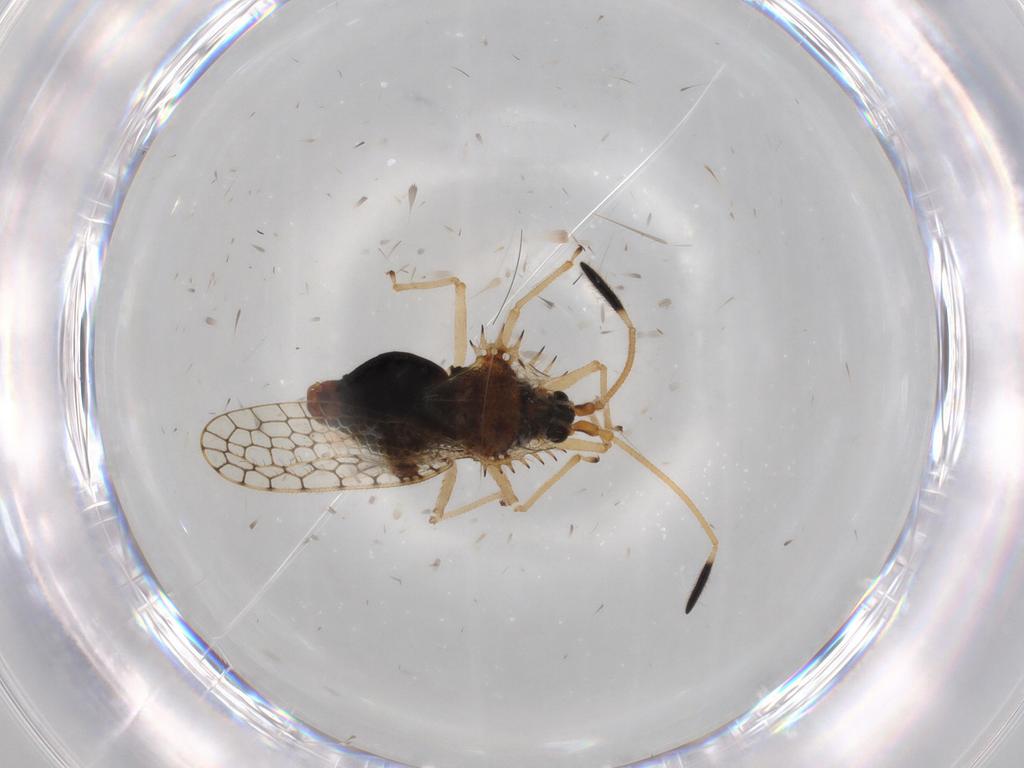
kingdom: Animalia
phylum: Arthropoda
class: Insecta
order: Hemiptera
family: Tingidae
